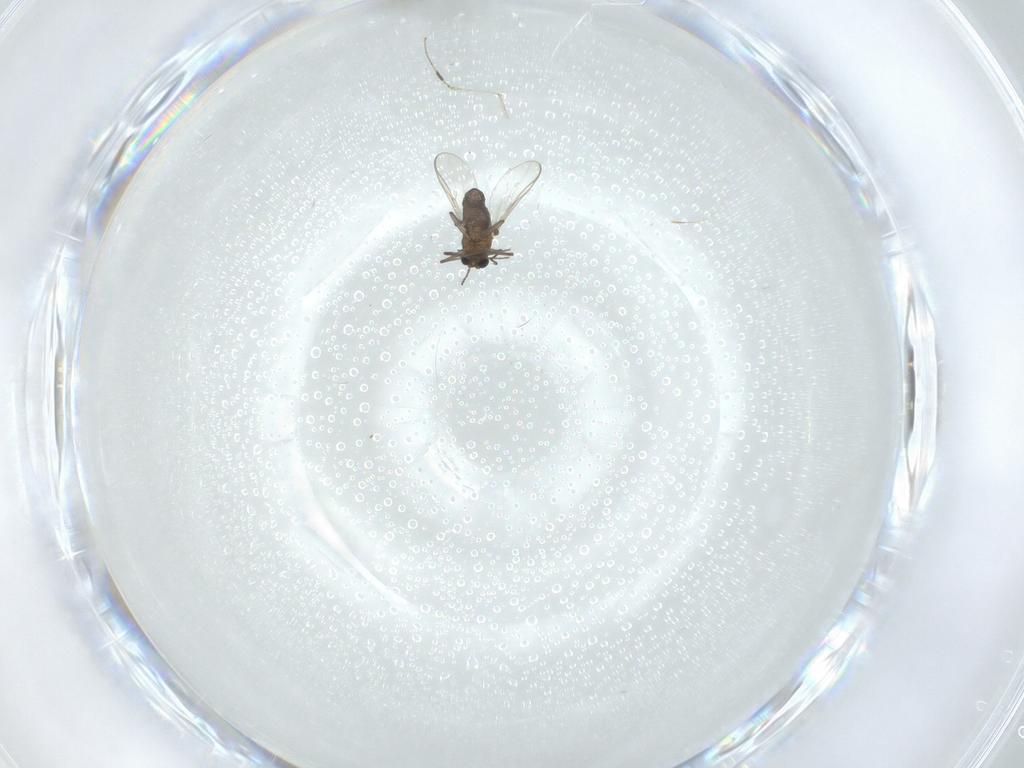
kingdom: Animalia
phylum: Arthropoda
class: Insecta
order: Diptera
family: Chironomidae
